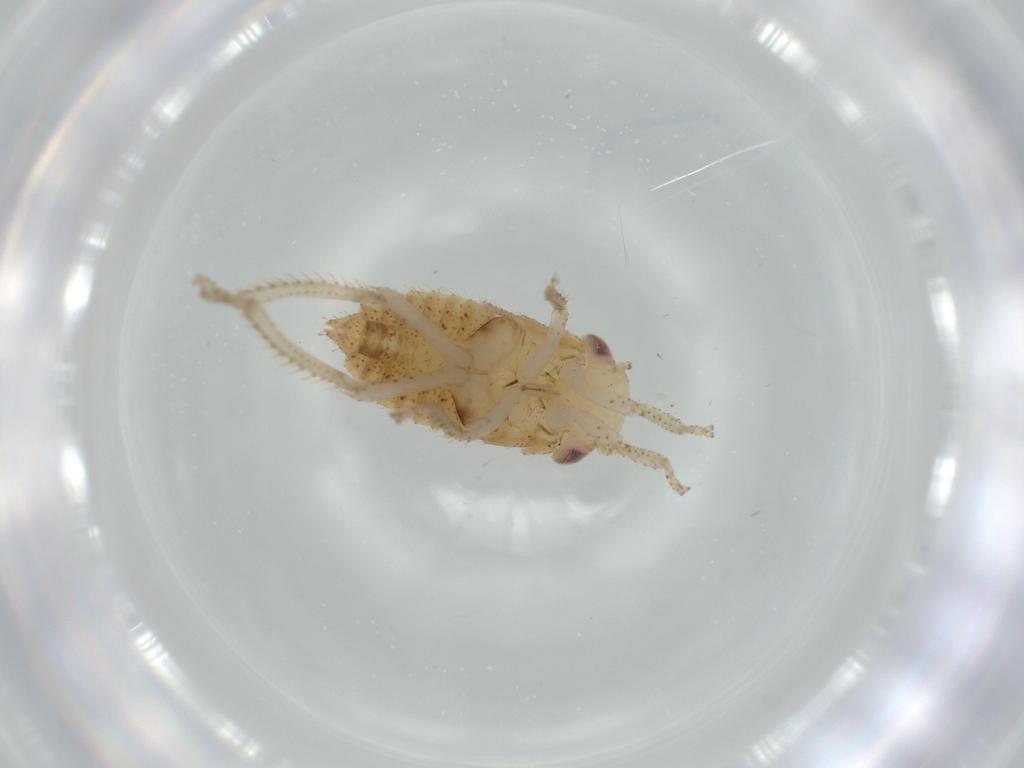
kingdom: Animalia
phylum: Arthropoda
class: Insecta
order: Hemiptera
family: Cicadellidae
